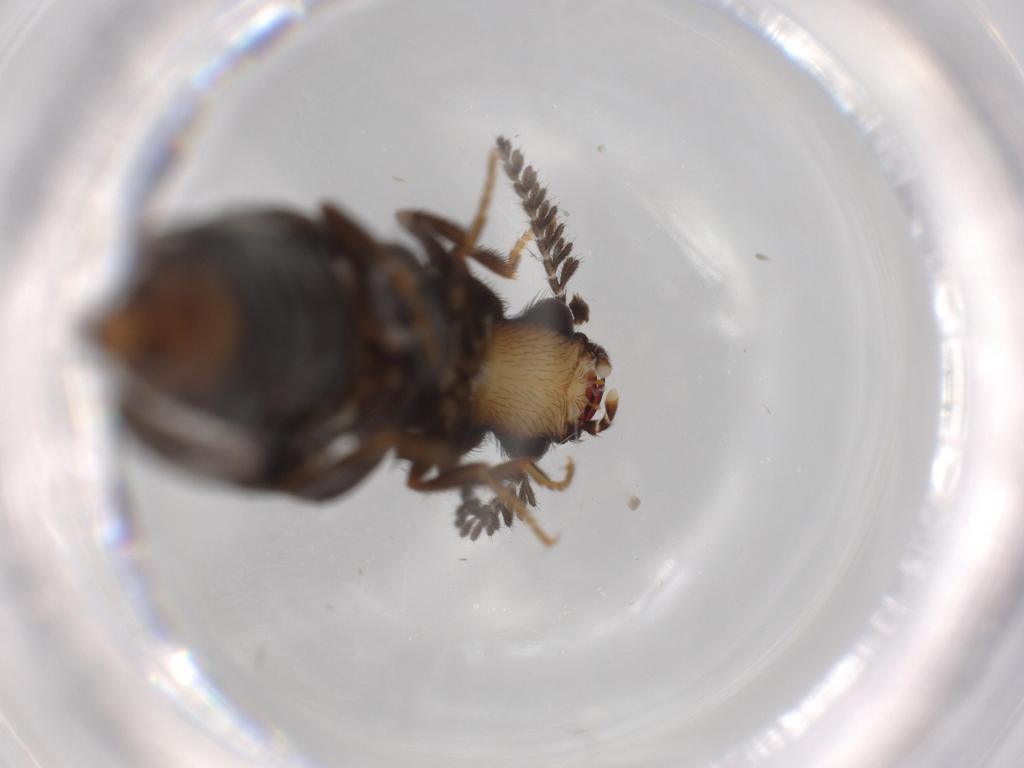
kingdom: Animalia
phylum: Arthropoda
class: Insecta
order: Coleoptera
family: Phengodidae
